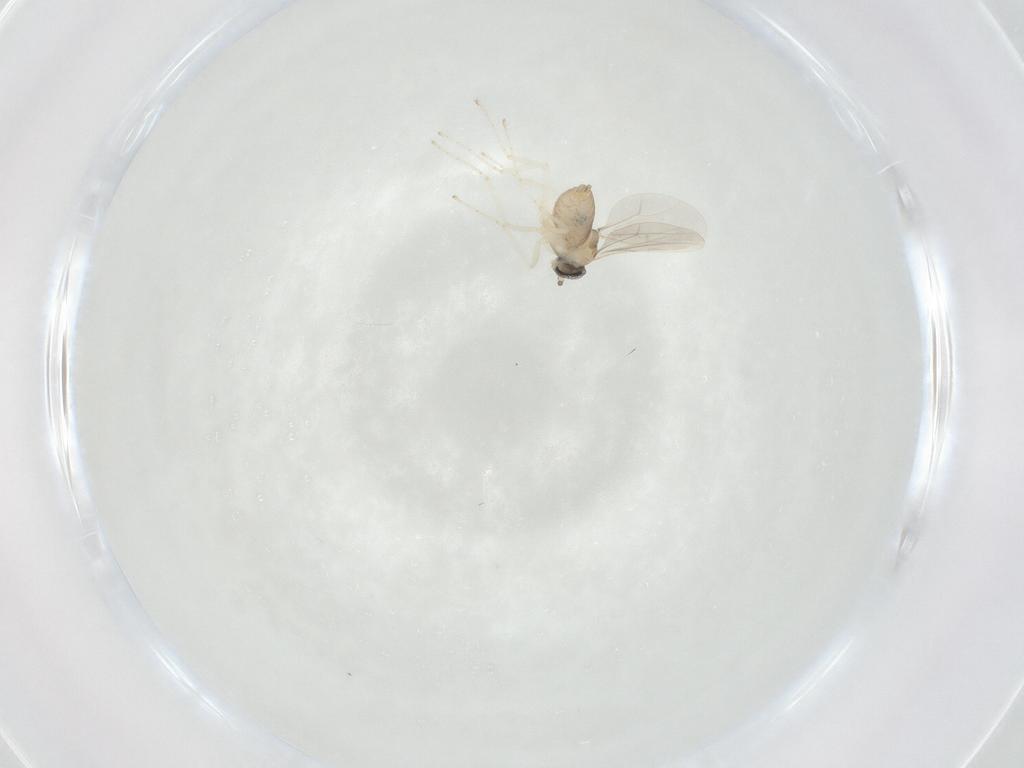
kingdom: Animalia
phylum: Arthropoda
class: Insecta
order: Diptera
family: Cecidomyiidae
